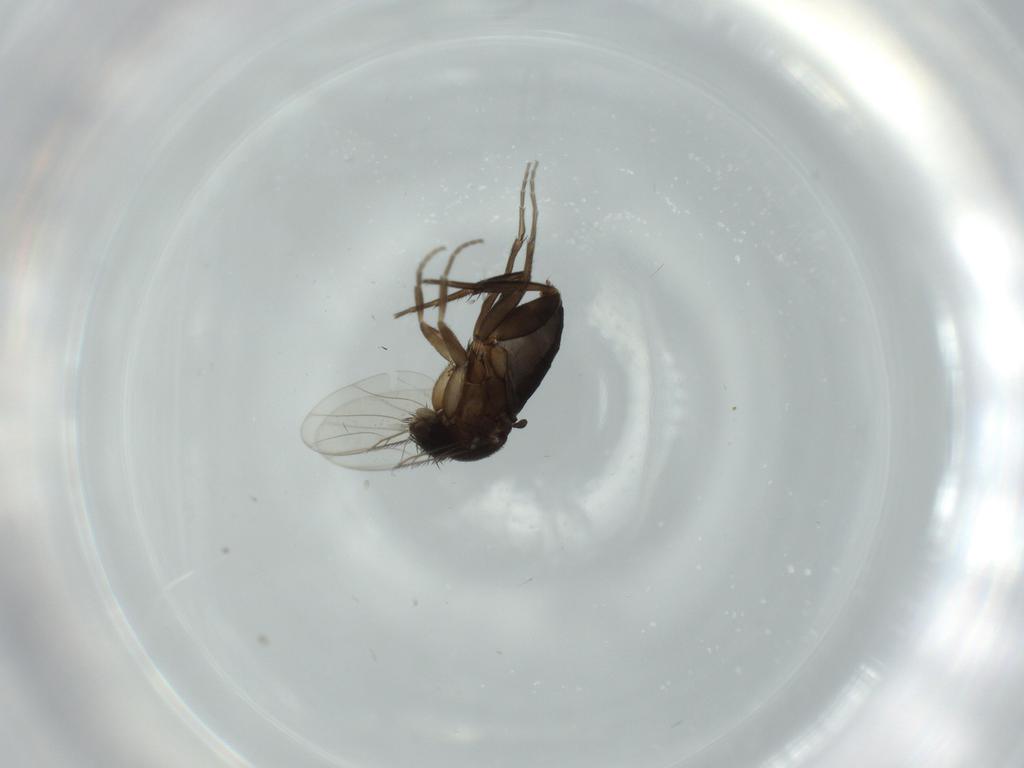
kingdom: Animalia
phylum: Arthropoda
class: Insecta
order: Diptera
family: Phoridae
